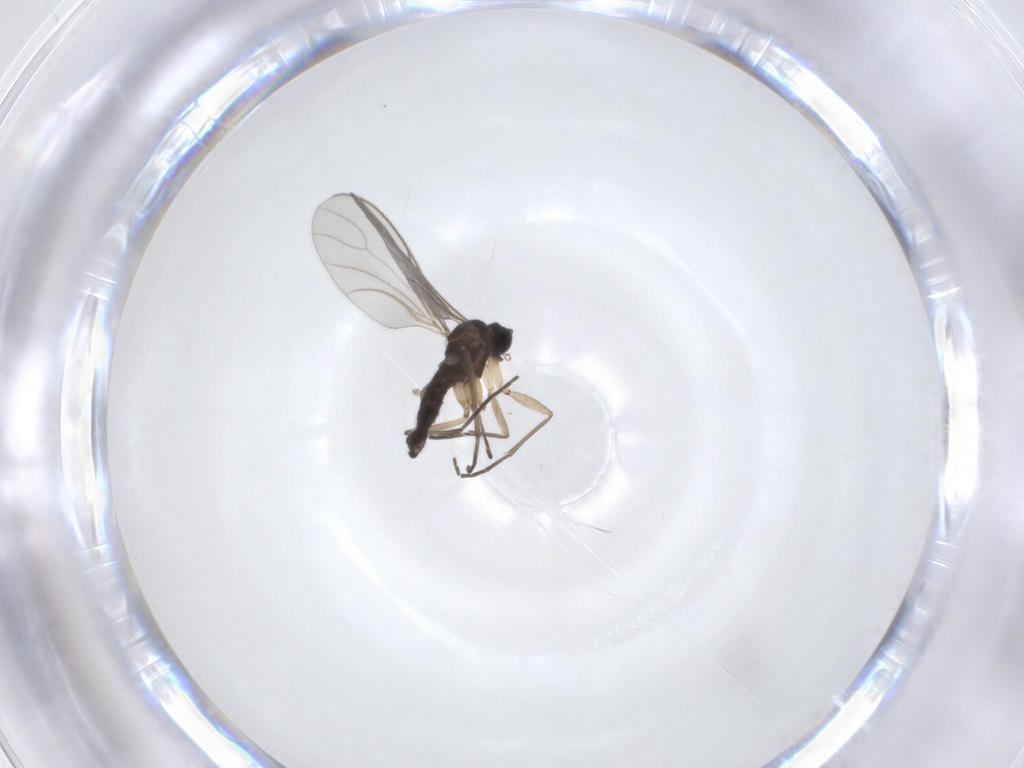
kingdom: Animalia
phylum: Arthropoda
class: Insecta
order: Diptera
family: Sciaridae
